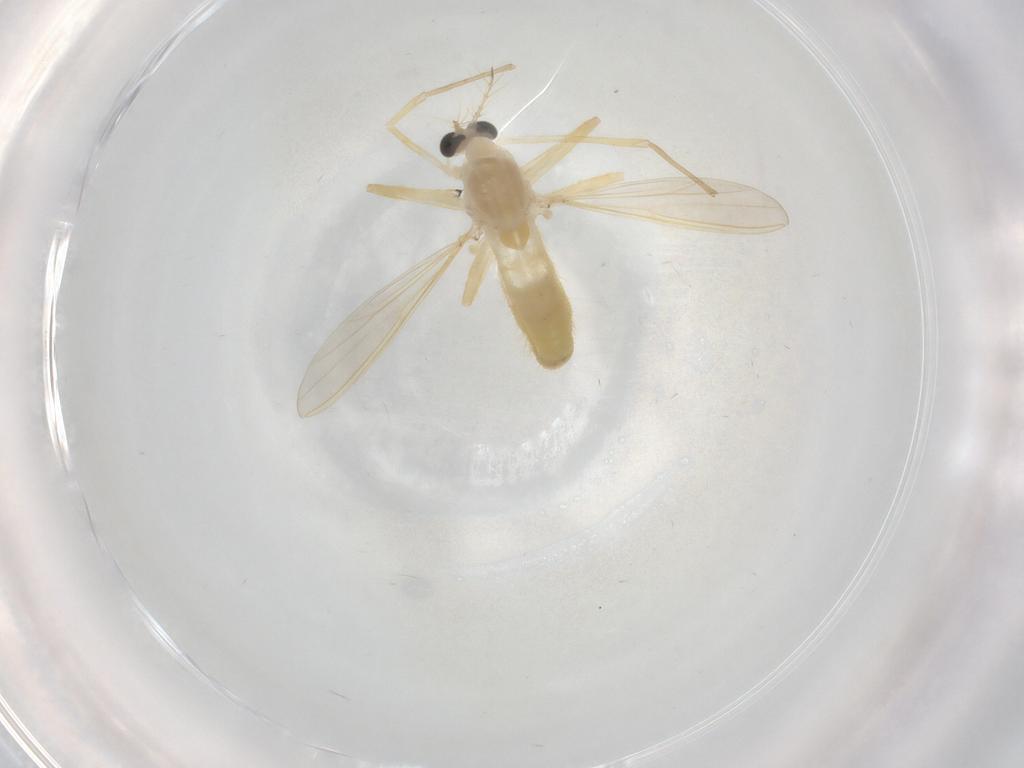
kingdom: Animalia
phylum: Arthropoda
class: Insecta
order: Diptera
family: Chironomidae
